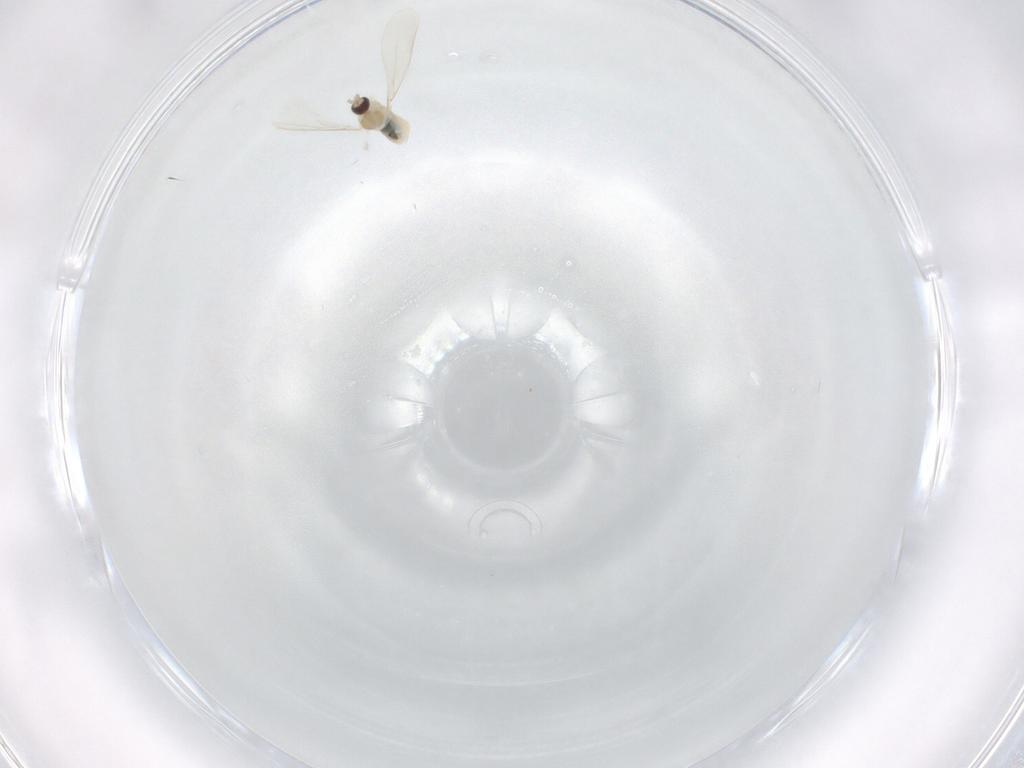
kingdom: Animalia
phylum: Arthropoda
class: Insecta
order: Diptera
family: Cecidomyiidae
